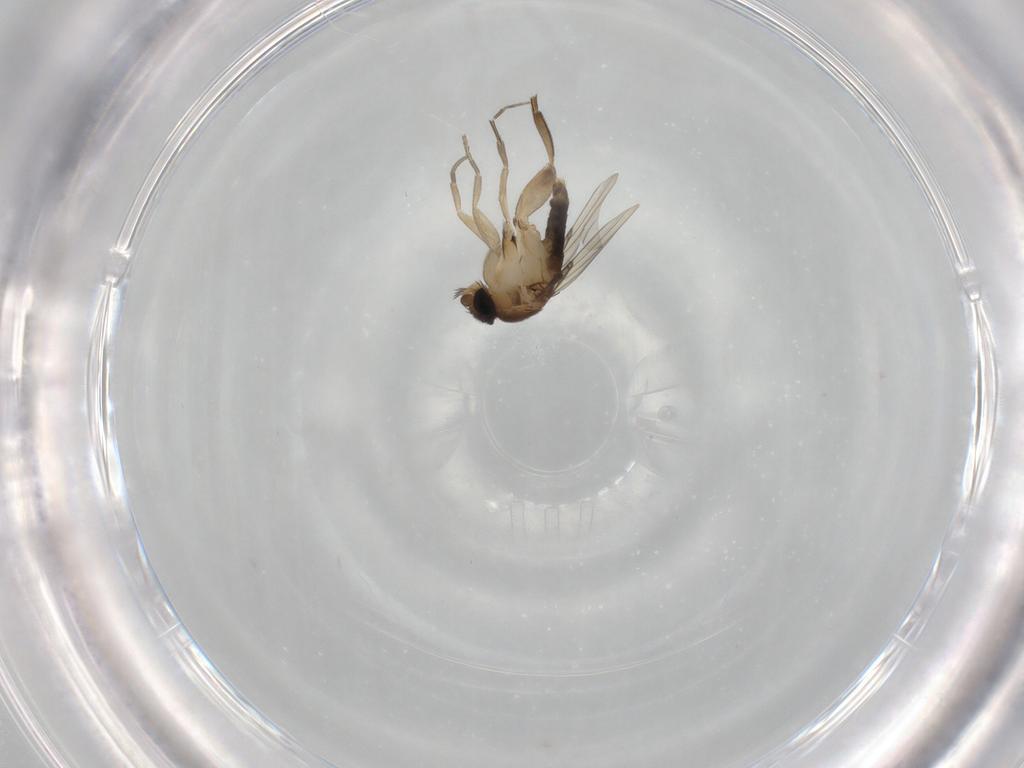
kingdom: Animalia
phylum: Arthropoda
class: Insecta
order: Diptera
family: Phoridae
